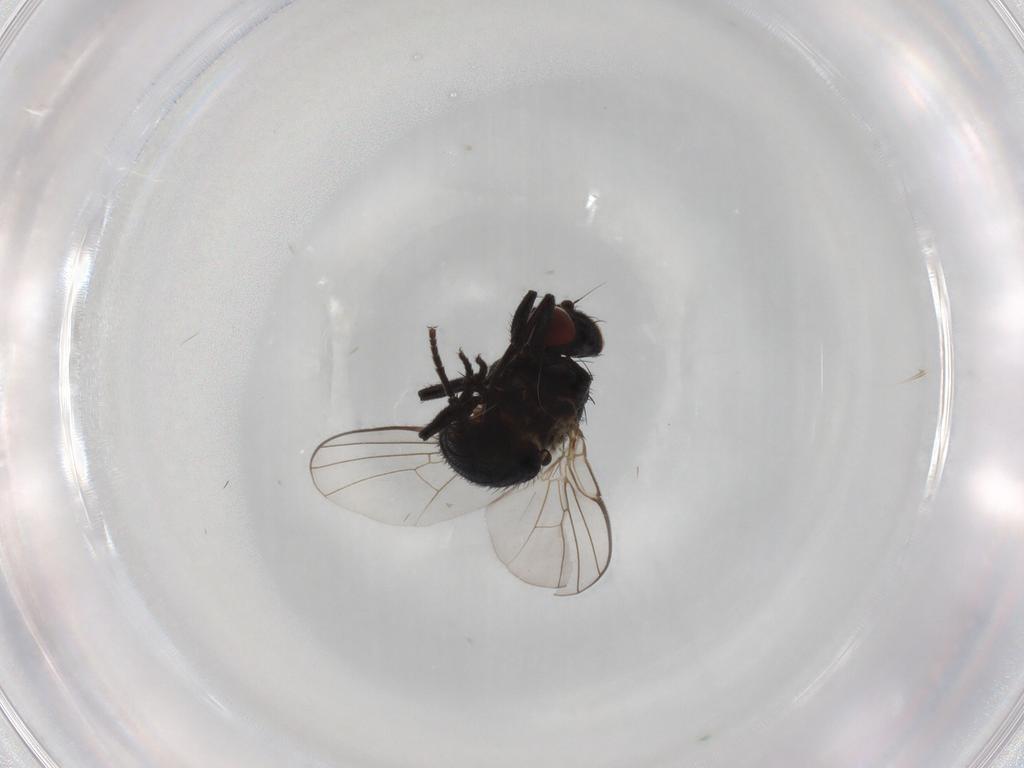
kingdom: Animalia
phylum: Arthropoda
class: Insecta
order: Diptera
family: Agromyzidae
